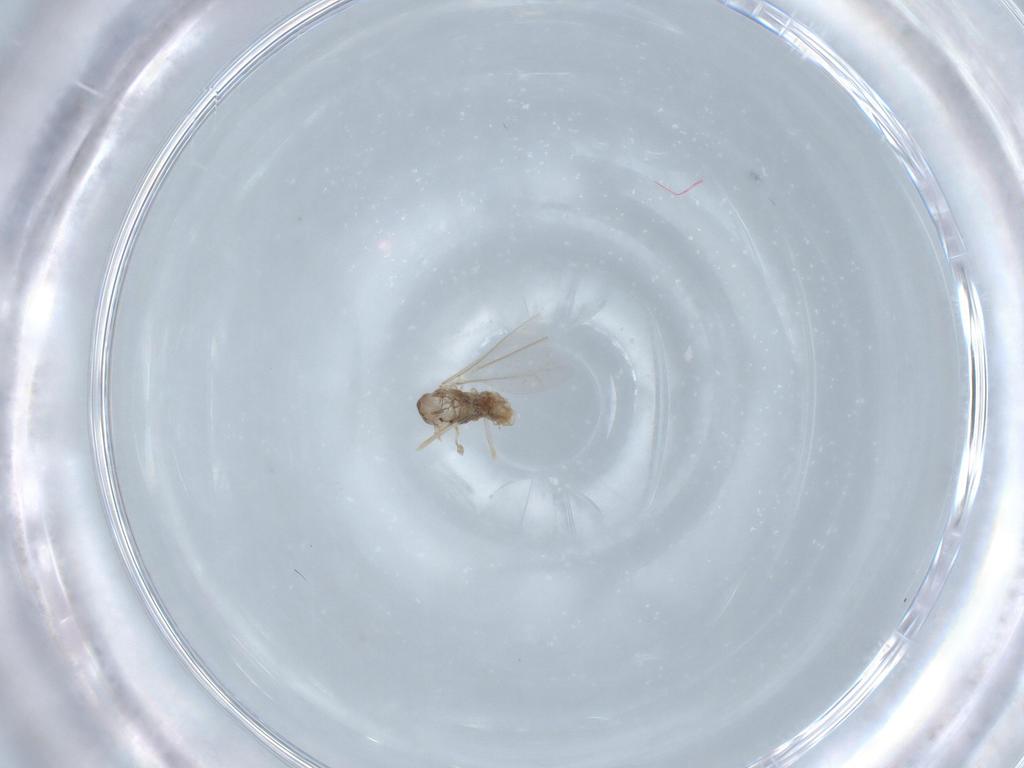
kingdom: Animalia
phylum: Arthropoda
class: Insecta
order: Diptera
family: Cecidomyiidae
